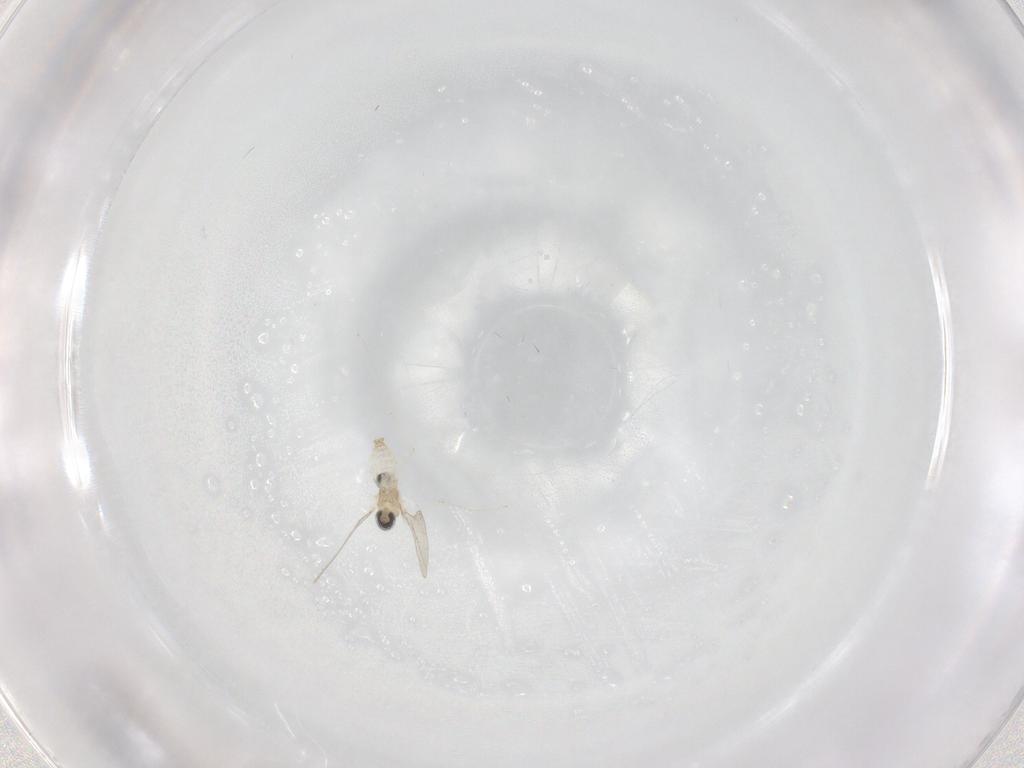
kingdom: Animalia
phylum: Arthropoda
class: Insecta
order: Diptera
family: Cecidomyiidae
